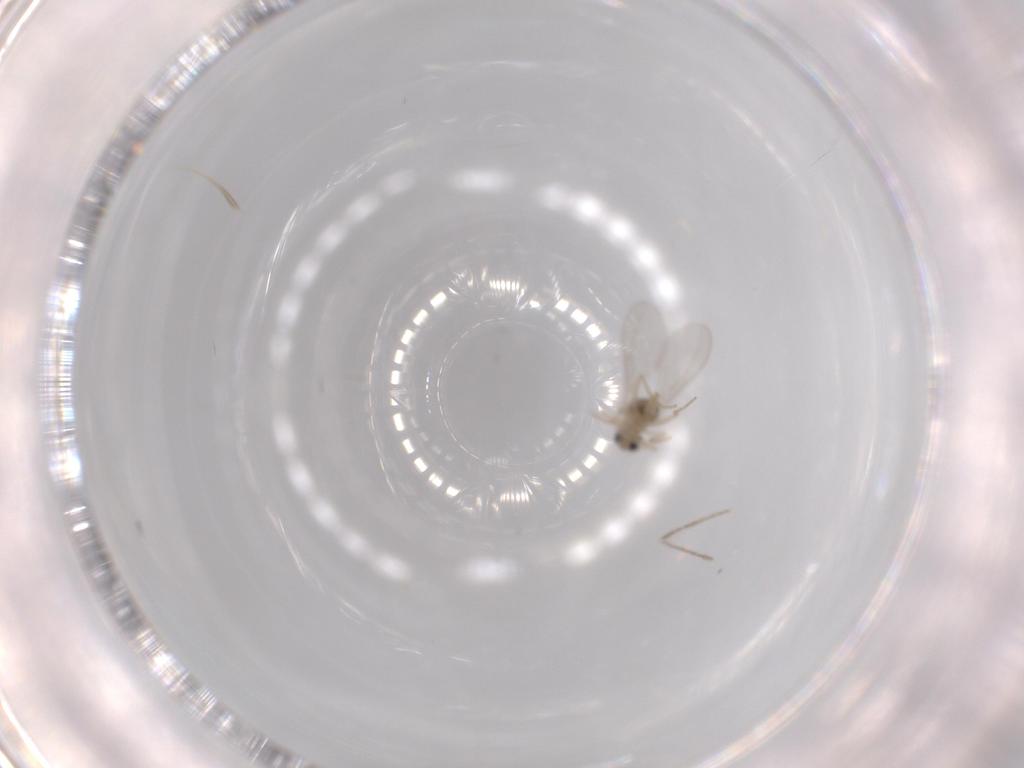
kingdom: Animalia
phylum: Arthropoda
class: Insecta
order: Diptera
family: Cecidomyiidae
